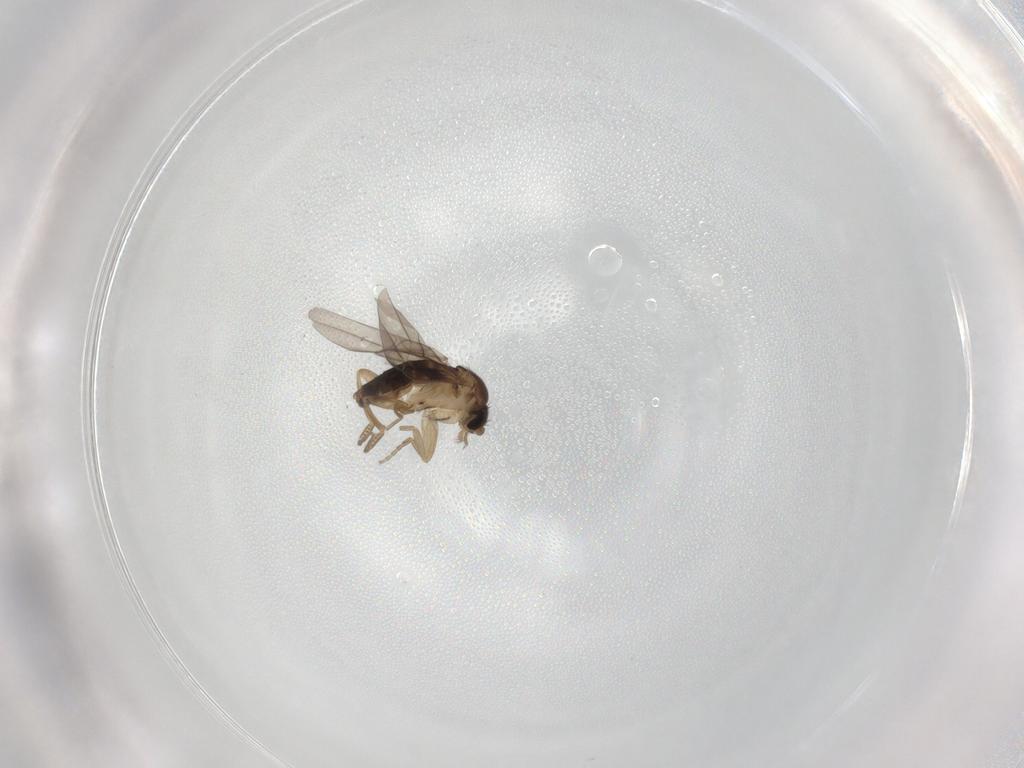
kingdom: Animalia
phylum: Arthropoda
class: Insecta
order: Diptera
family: Phoridae
